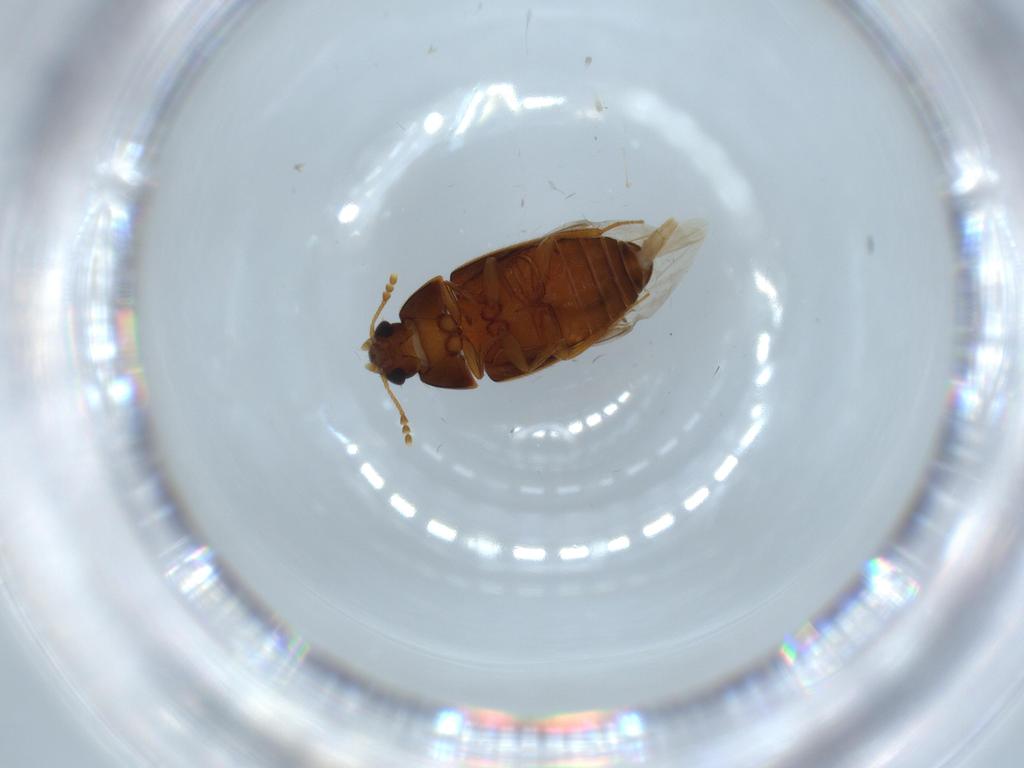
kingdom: Animalia
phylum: Arthropoda
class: Insecta
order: Coleoptera
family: Mycetophagidae
